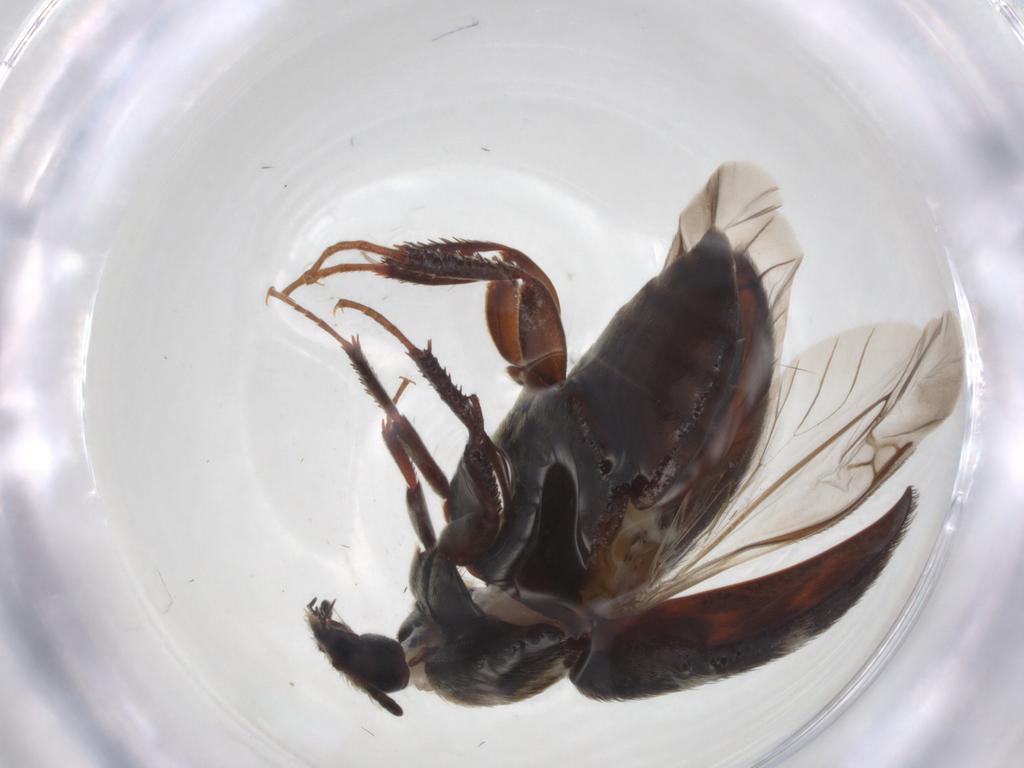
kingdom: Animalia
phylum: Arthropoda
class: Insecta
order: Coleoptera
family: Dermestidae
